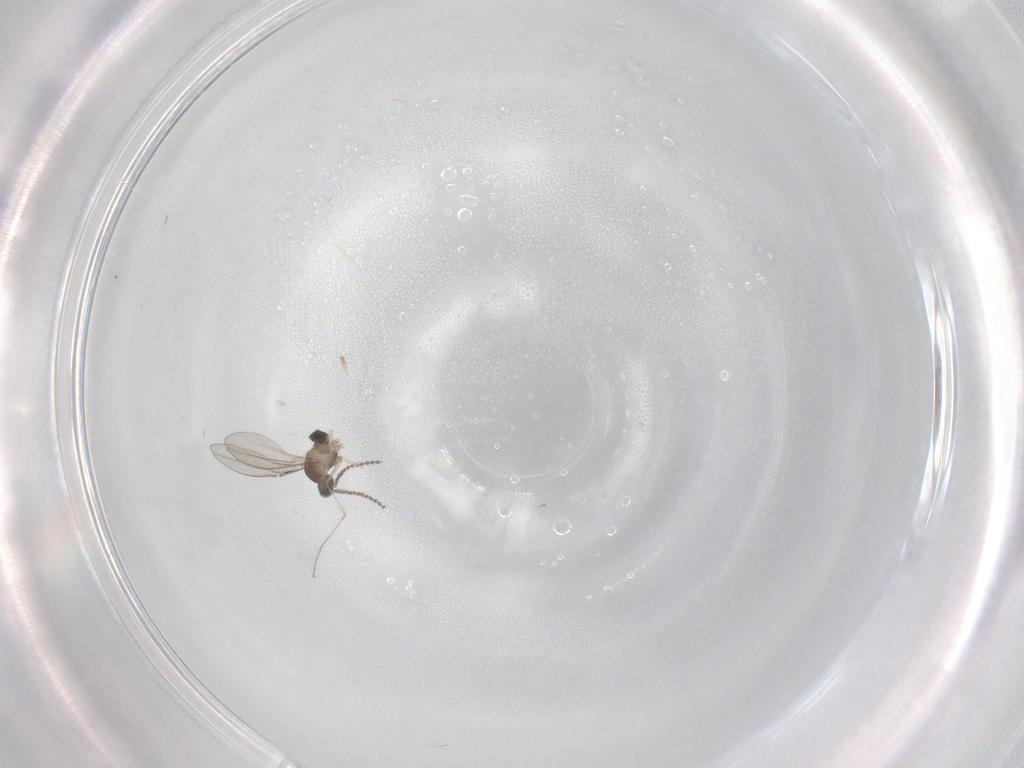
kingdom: Animalia
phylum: Arthropoda
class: Insecta
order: Diptera
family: Cecidomyiidae
